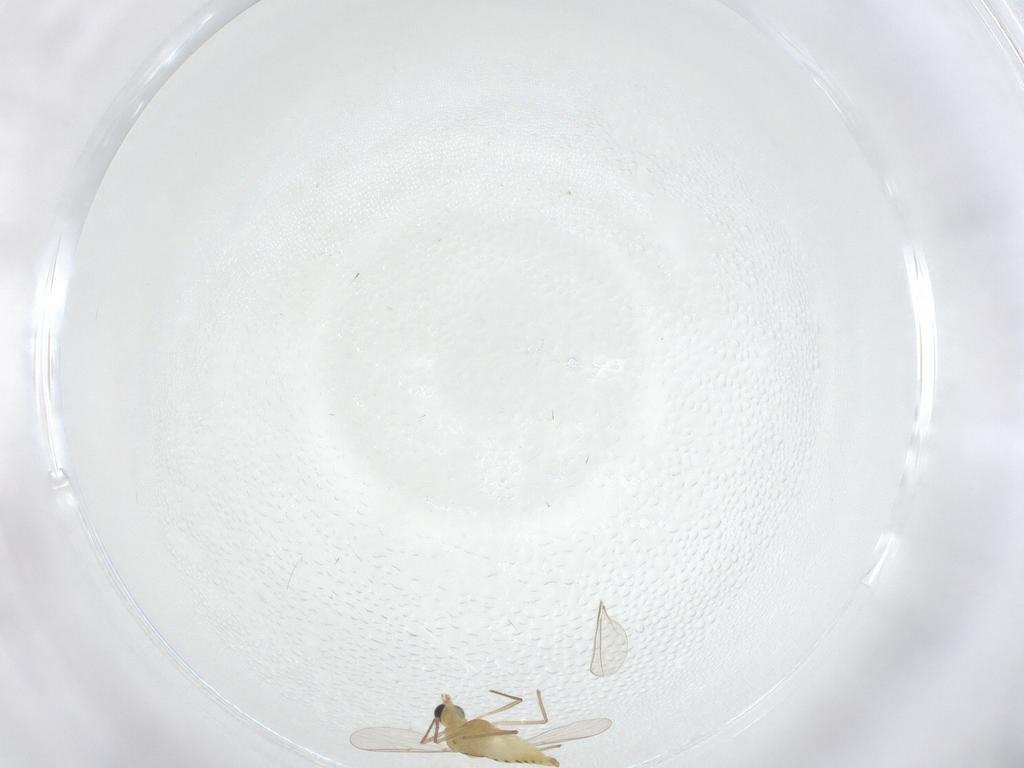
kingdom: Animalia
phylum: Arthropoda
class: Insecta
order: Diptera
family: Chironomidae
